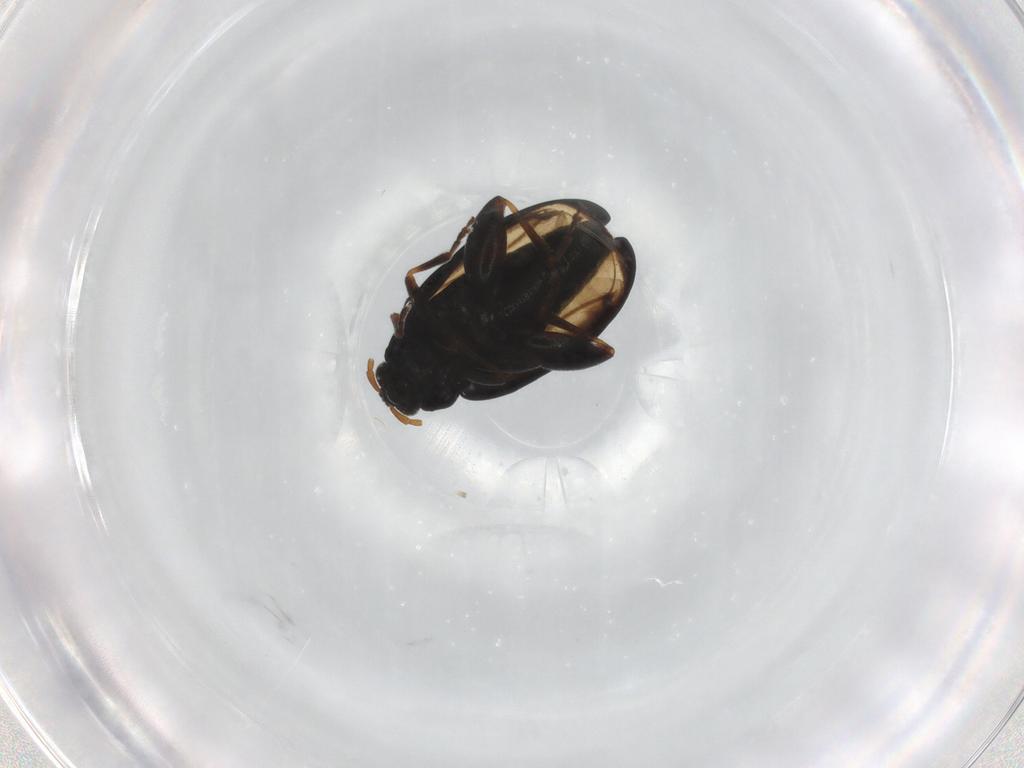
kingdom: Animalia
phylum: Arthropoda
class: Insecta
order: Coleoptera
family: Chrysomelidae
